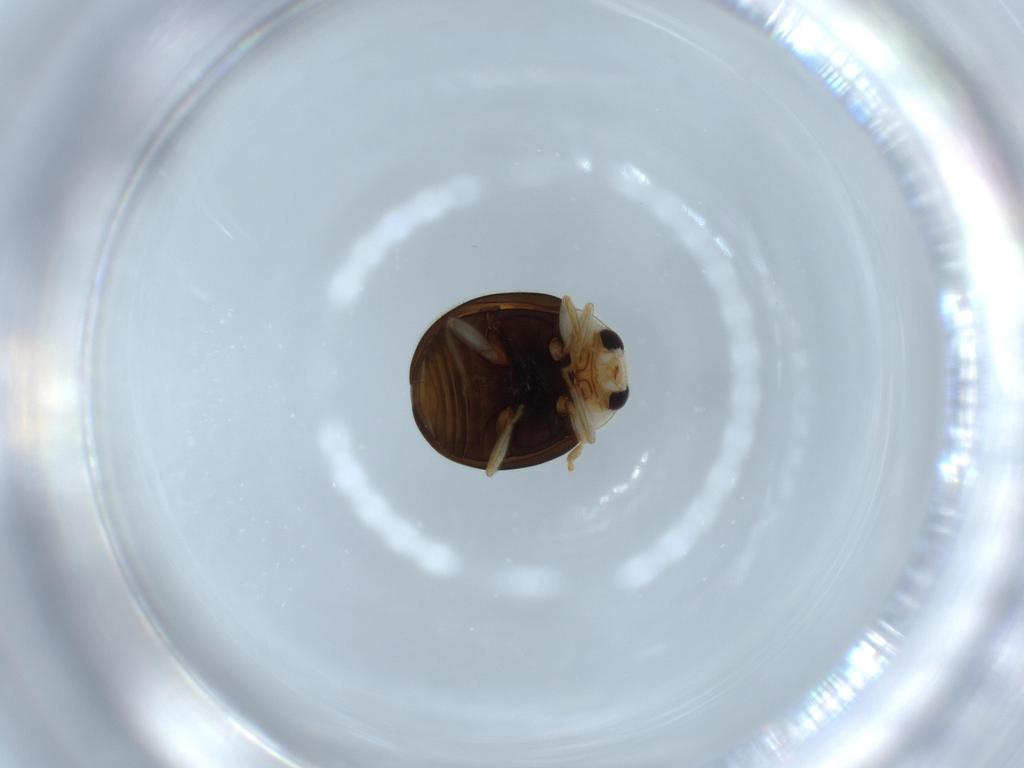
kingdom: Animalia
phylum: Arthropoda
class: Insecta
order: Coleoptera
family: Coccinellidae
